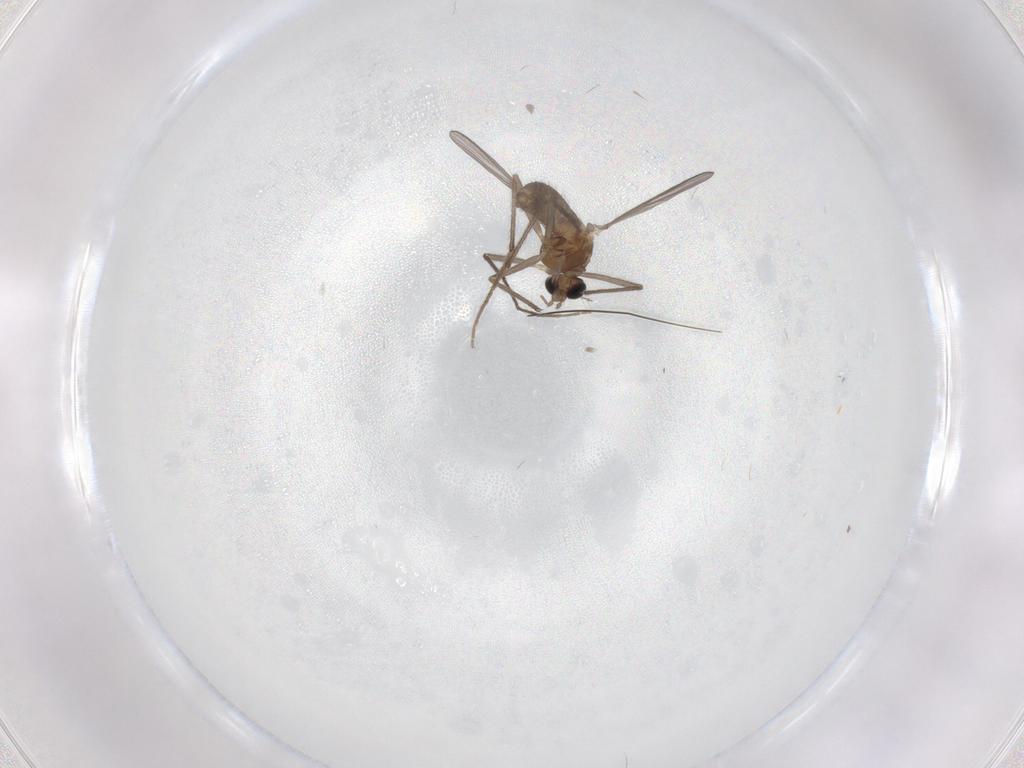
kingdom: Animalia
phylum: Arthropoda
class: Insecta
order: Diptera
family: Chironomidae
